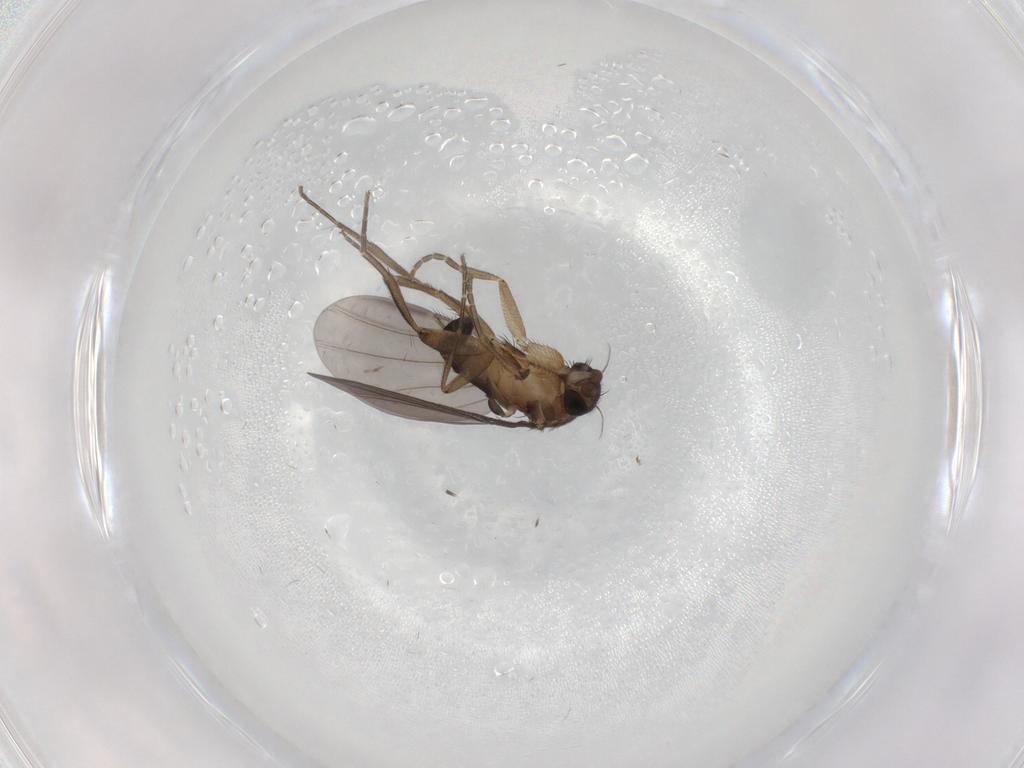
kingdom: Animalia
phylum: Arthropoda
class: Insecta
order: Diptera
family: Phoridae
